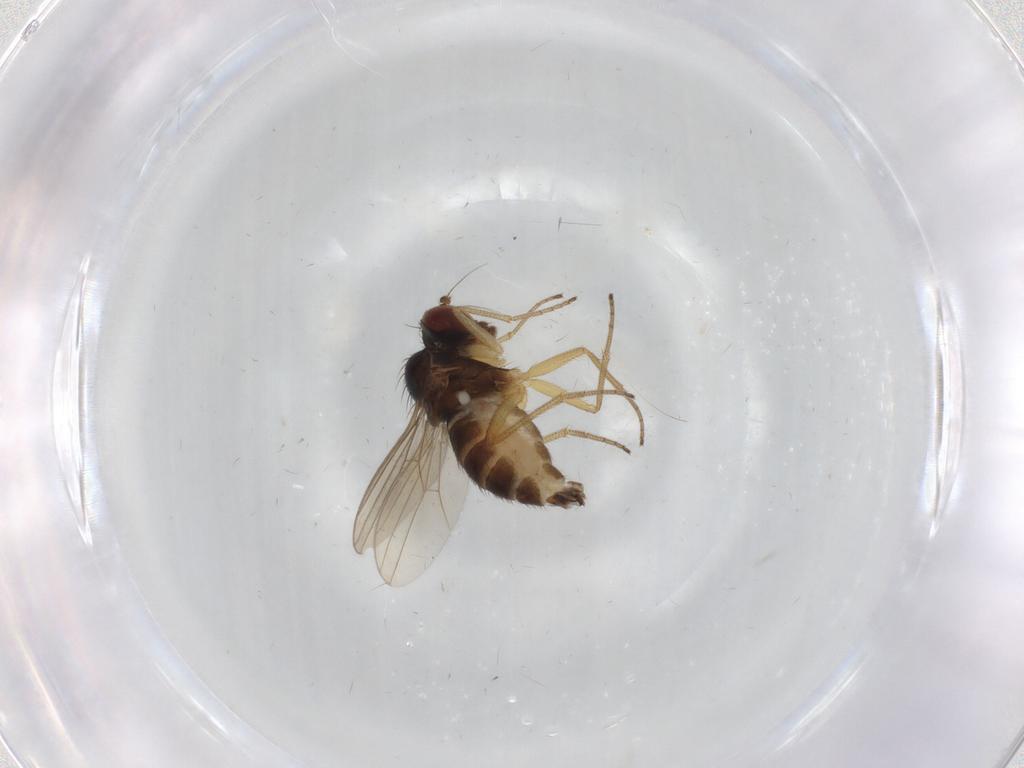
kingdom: Animalia
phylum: Arthropoda
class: Insecta
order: Diptera
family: Dolichopodidae
